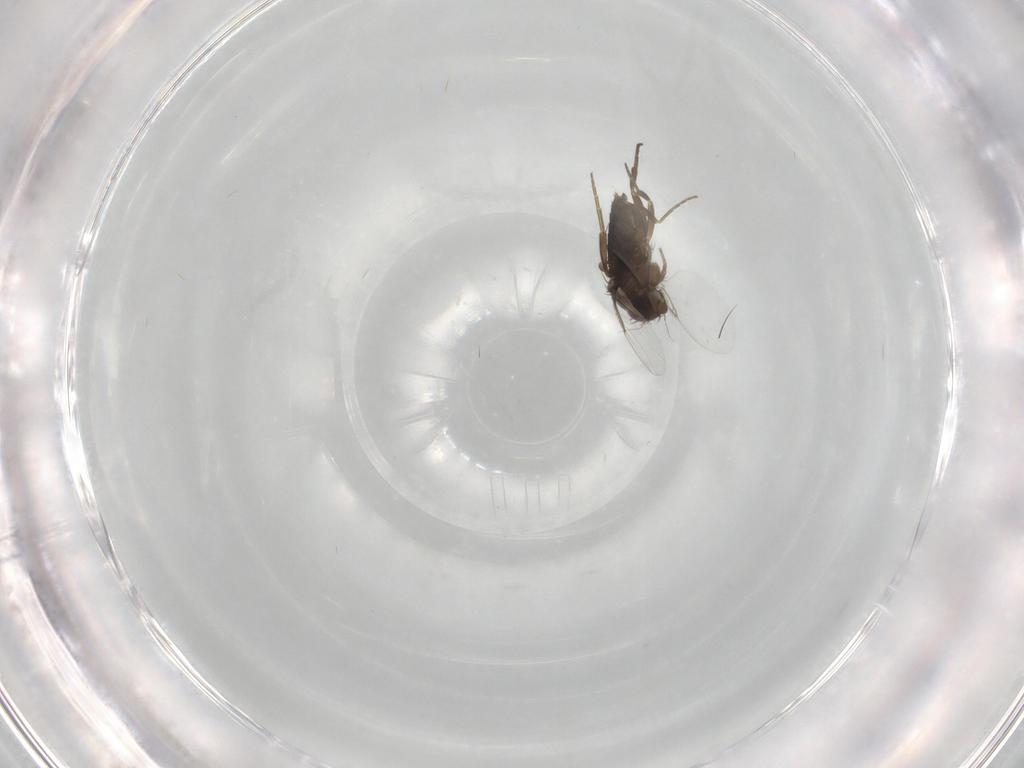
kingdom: Animalia
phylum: Arthropoda
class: Insecta
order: Diptera
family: Phoridae
